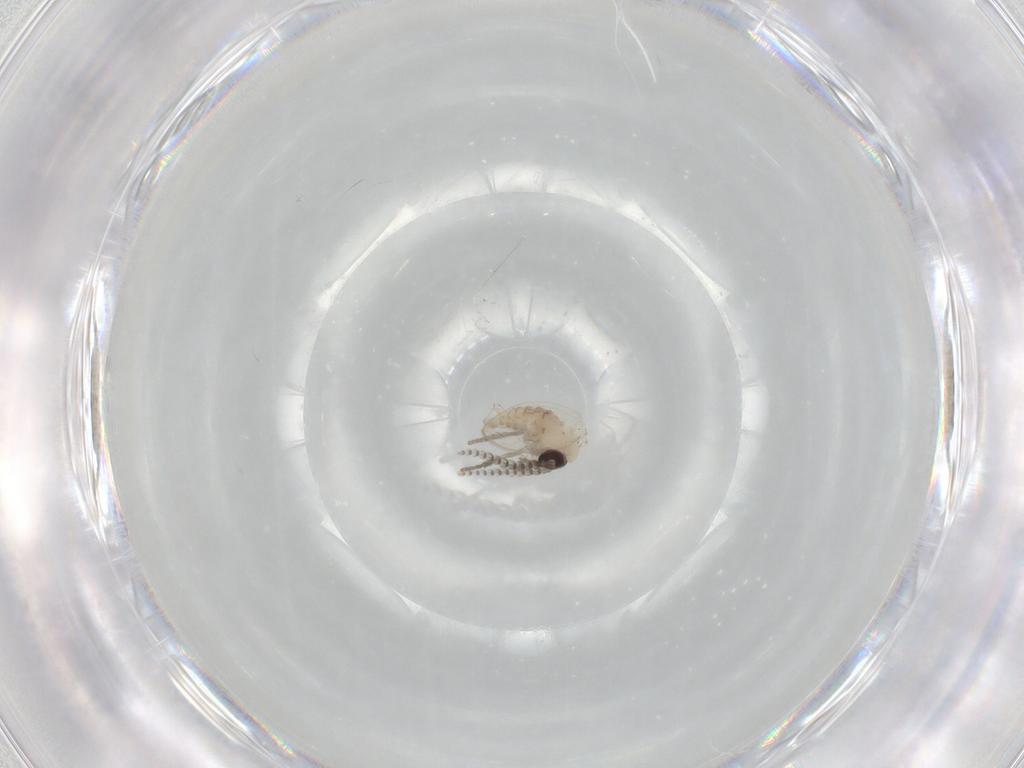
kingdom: Animalia
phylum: Arthropoda
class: Insecta
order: Diptera
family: Psychodidae
